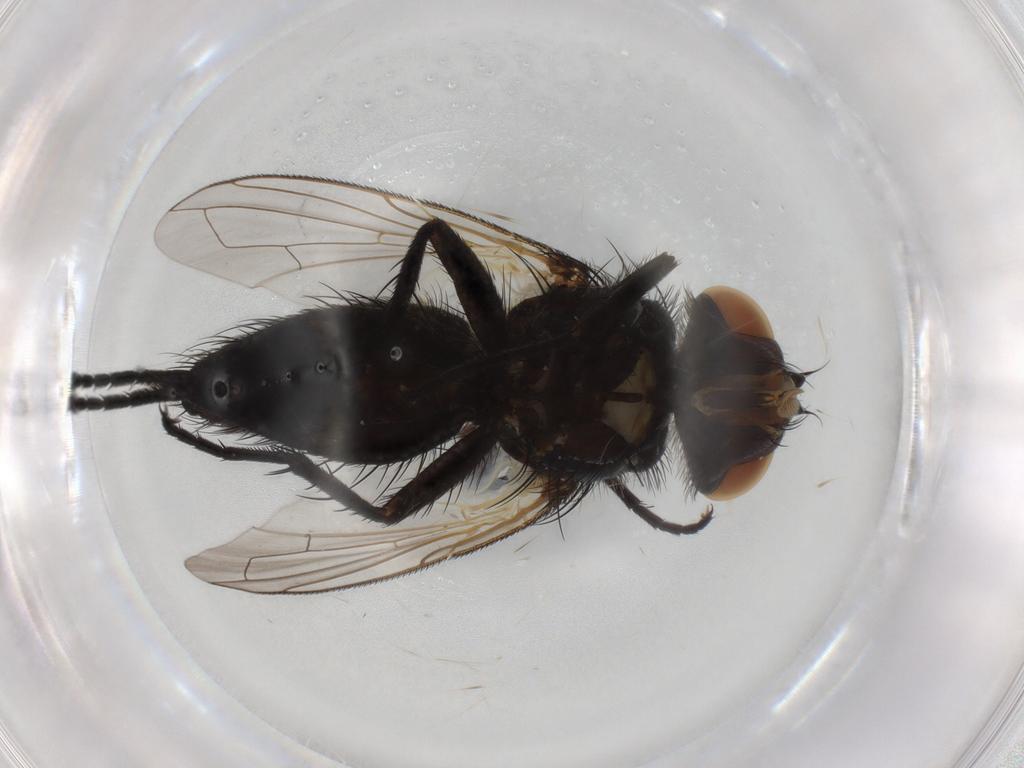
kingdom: Animalia
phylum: Arthropoda
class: Insecta
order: Diptera
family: Tachinidae
